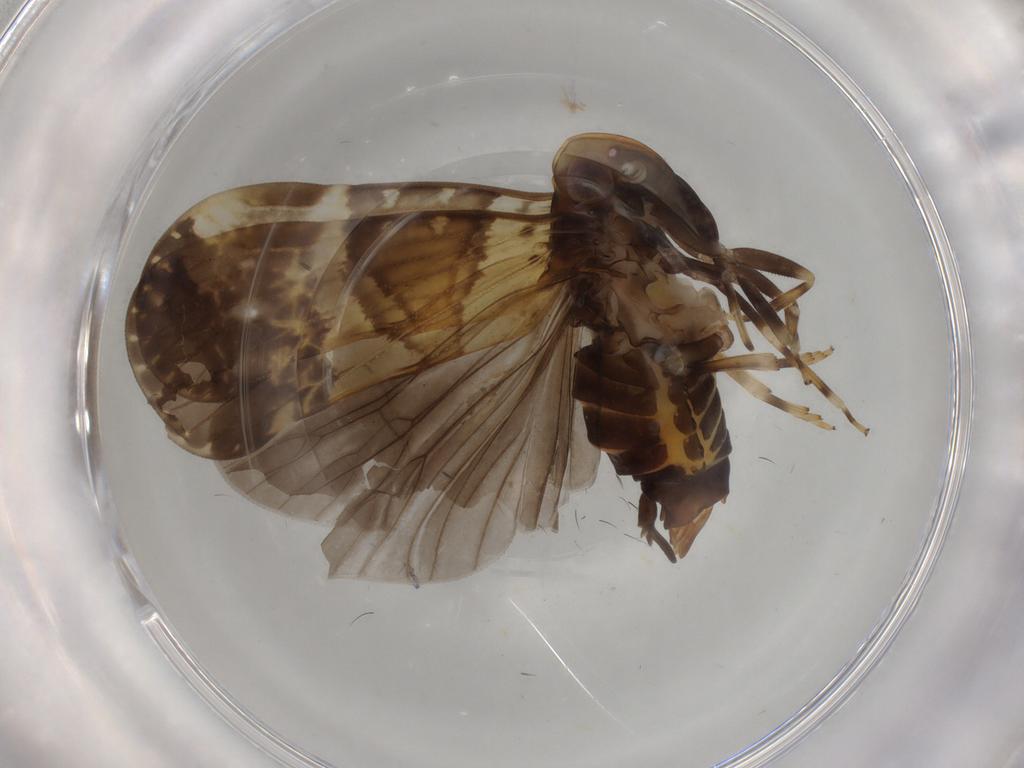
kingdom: Animalia
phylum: Arthropoda
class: Insecta
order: Hemiptera
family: Cixiidae
